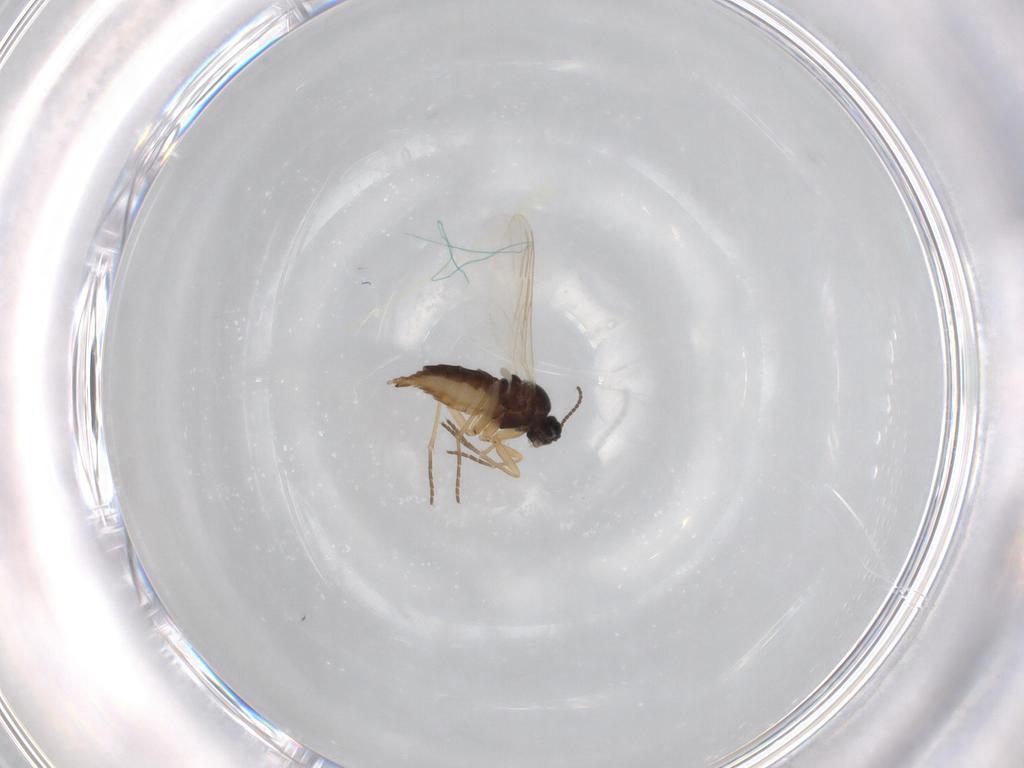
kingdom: Animalia
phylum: Arthropoda
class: Insecta
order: Diptera
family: Sciaridae
